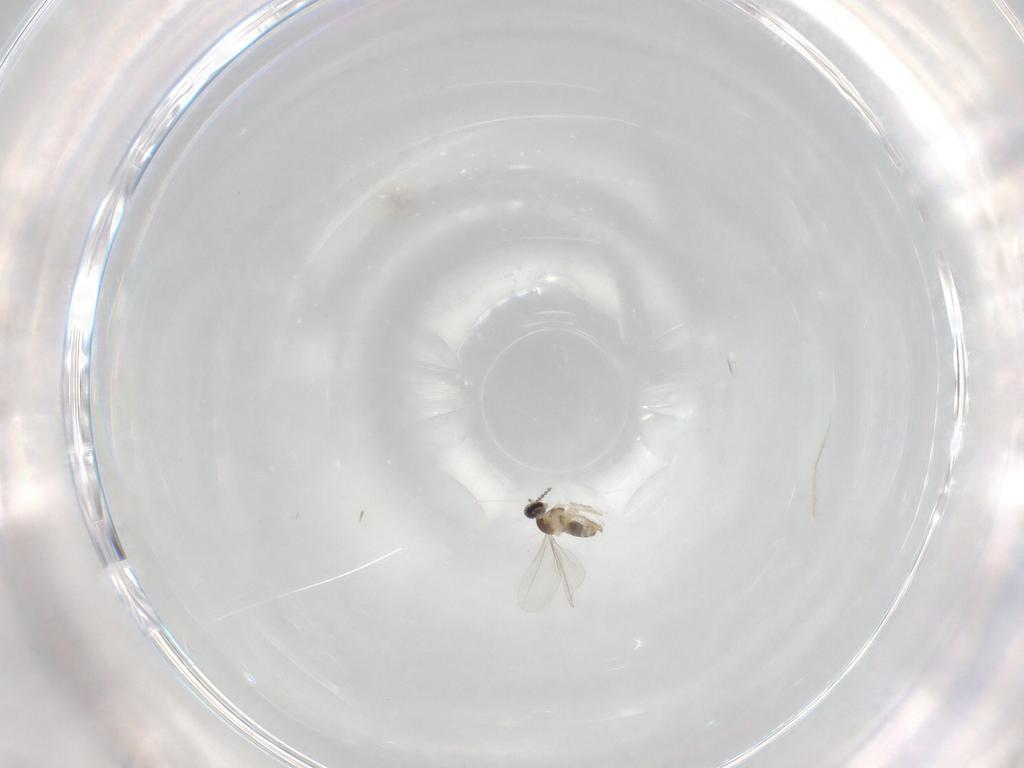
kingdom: Animalia
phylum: Arthropoda
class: Insecta
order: Diptera
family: Cecidomyiidae
